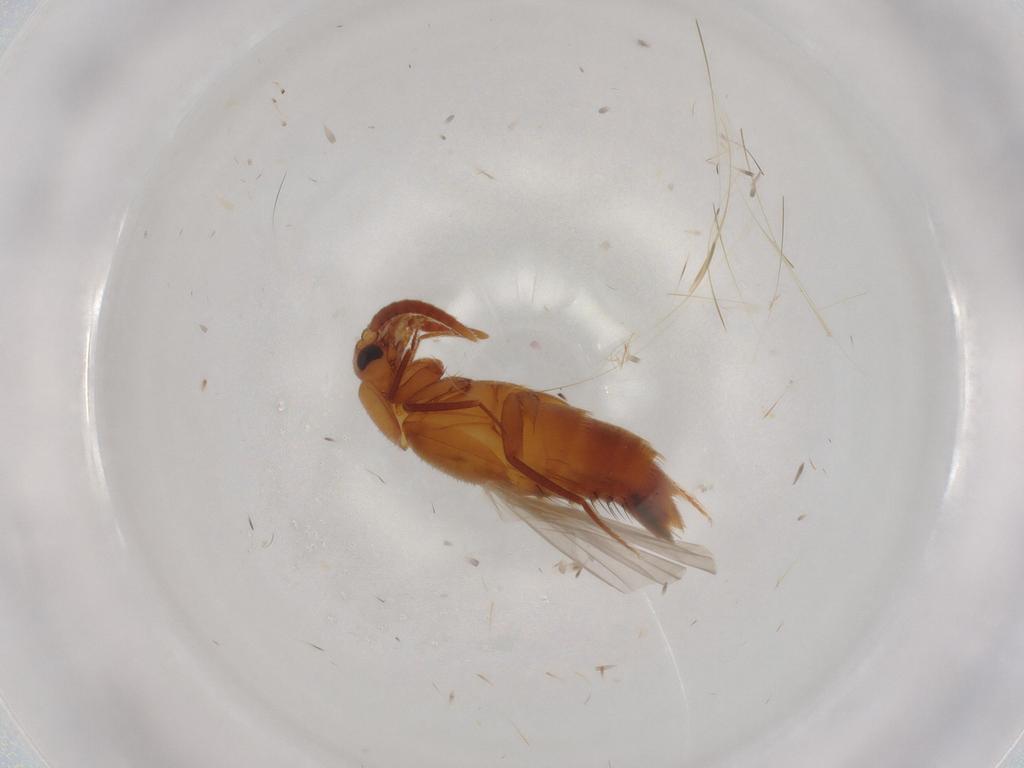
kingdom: Animalia
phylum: Arthropoda
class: Insecta
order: Coleoptera
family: Staphylinidae
